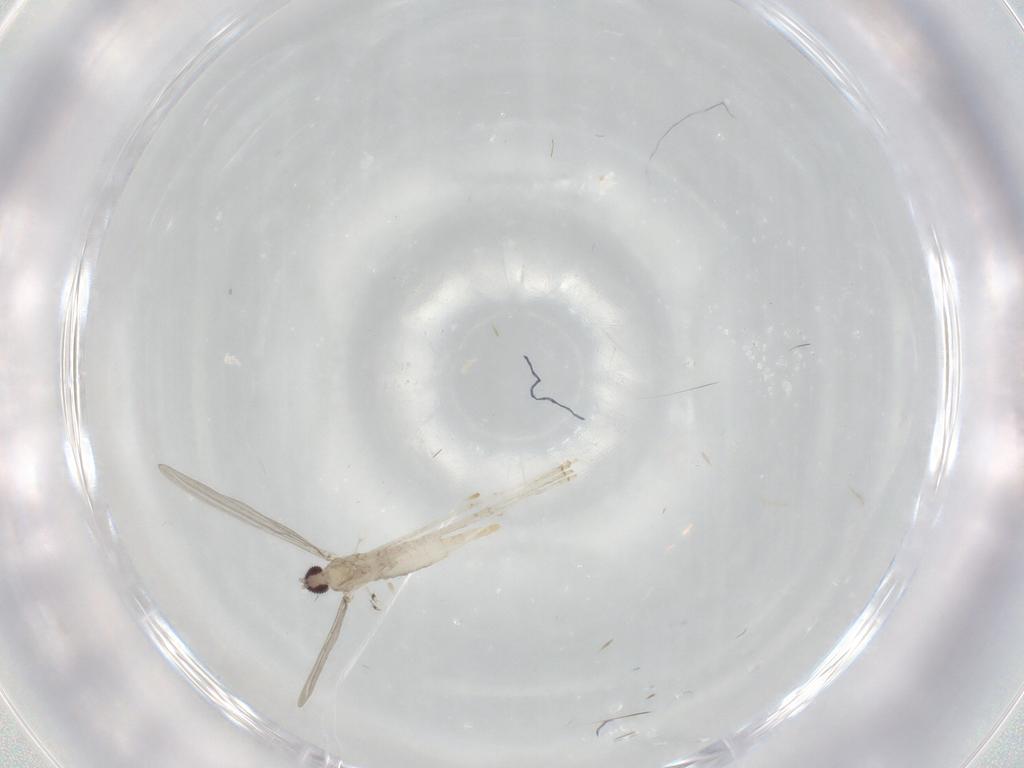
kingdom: Animalia
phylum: Arthropoda
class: Insecta
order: Diptera
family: Cecidomyiidae
